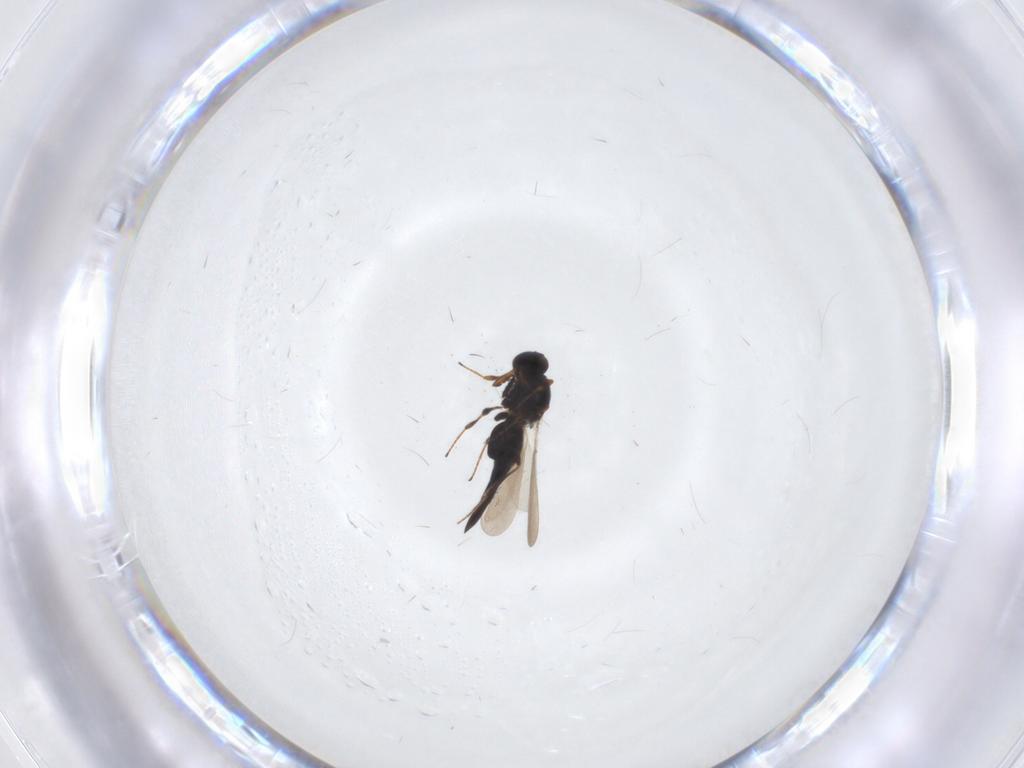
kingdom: Animalia
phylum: Arthropoda
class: Insecta
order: Hymenoptera
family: Platygastridae
